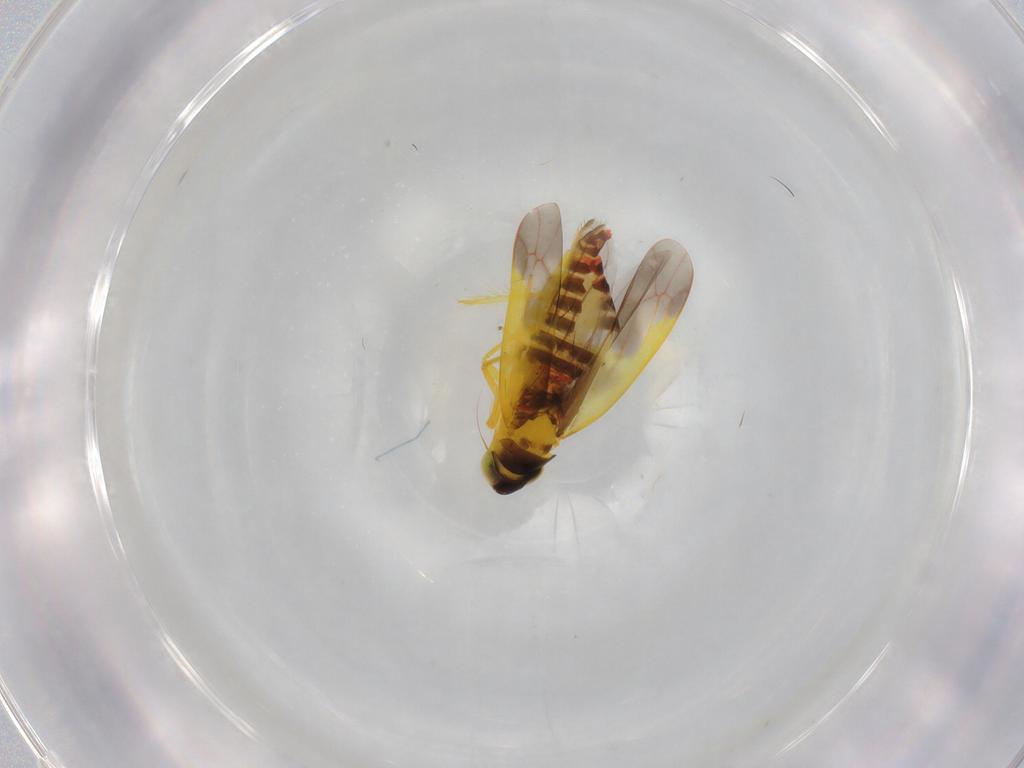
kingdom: Animalia
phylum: Arthropoda
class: Insecta
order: Hemiptera
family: Cicadellidae
